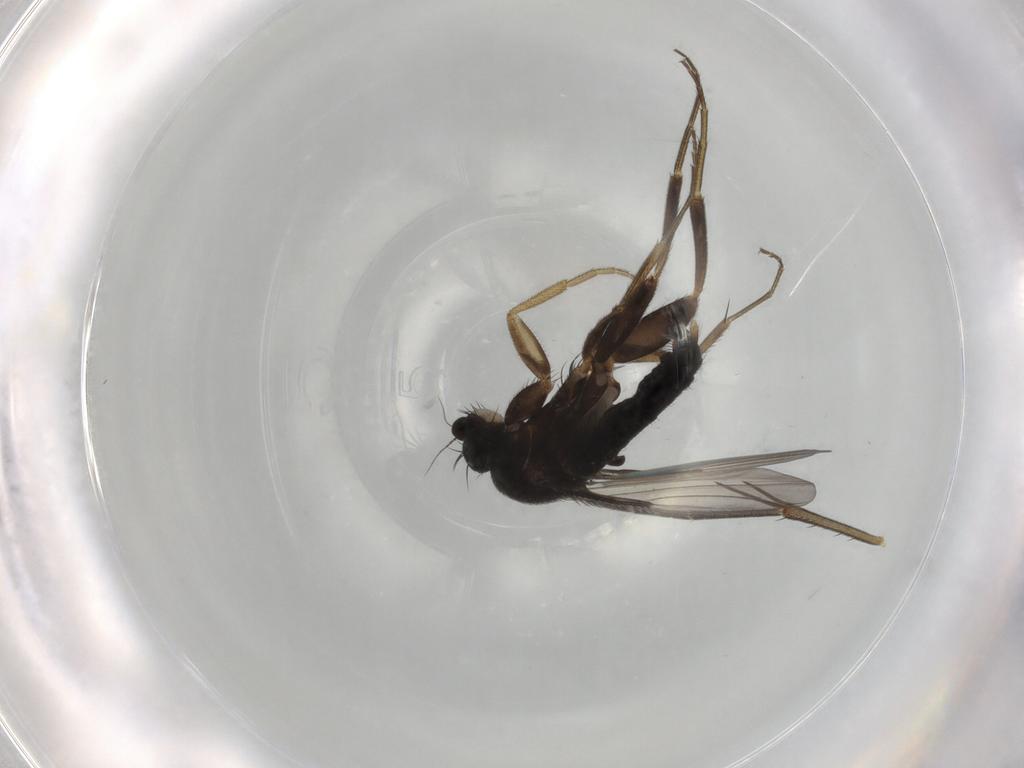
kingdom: Animalia
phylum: Arthropoda
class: Insecta
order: Diptera
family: Phoridae
